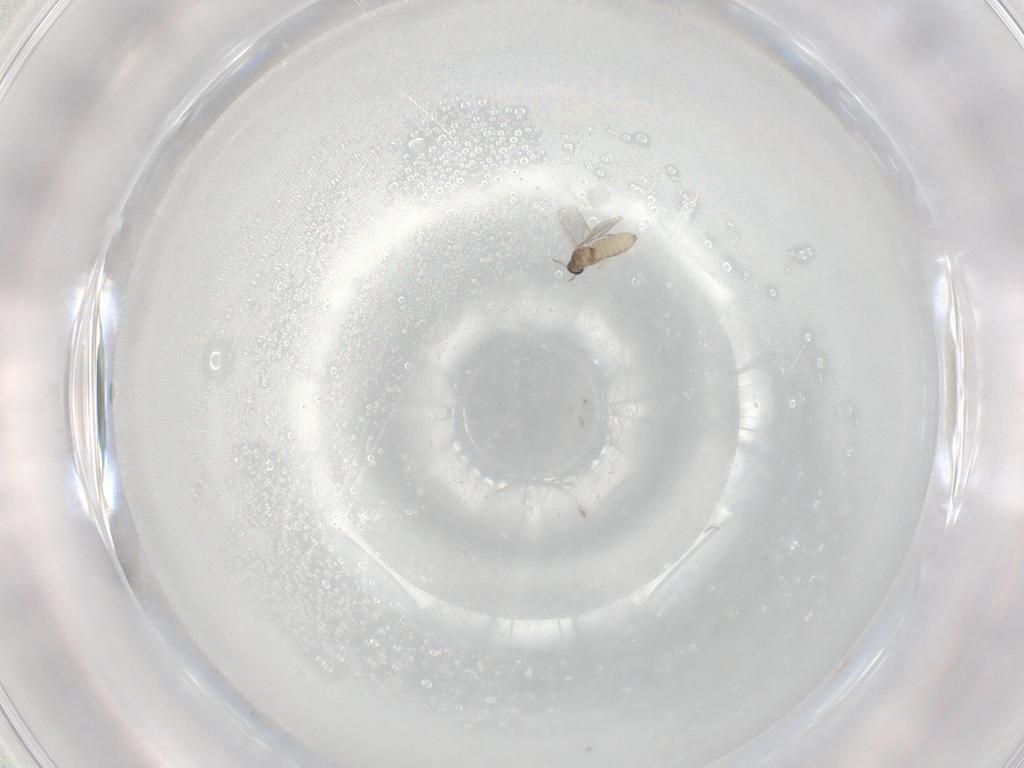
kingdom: Animalia
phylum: Arthropoda
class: Insecta
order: Diptera
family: Cecidomyiidae
